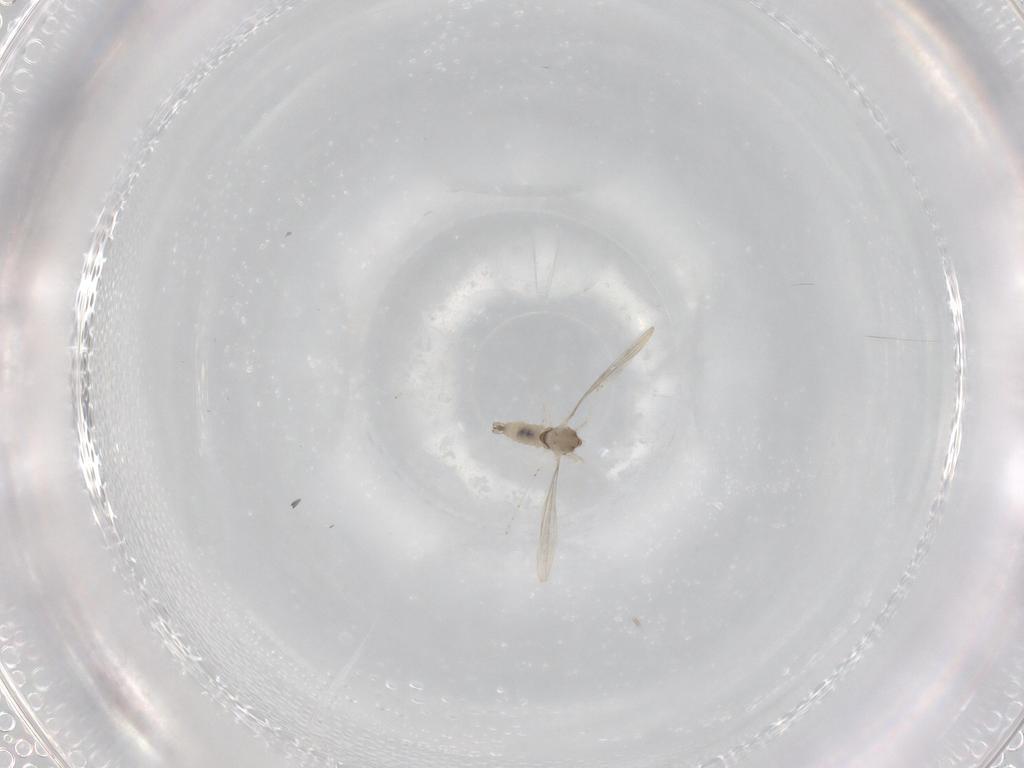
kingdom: Animalia
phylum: Arthropoda
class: Insecta
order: Diptera
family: Cecidomyiidae
